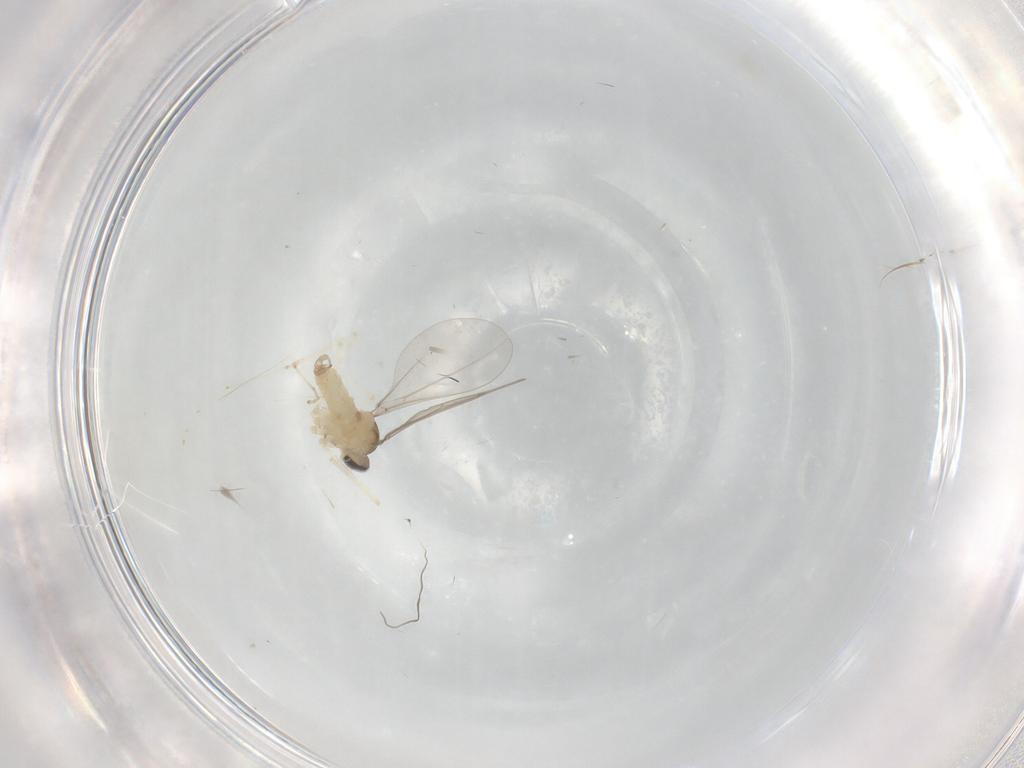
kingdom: Animalia
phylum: Arthropoda
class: Insecta
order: Diptera
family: Cecidomyiidae
